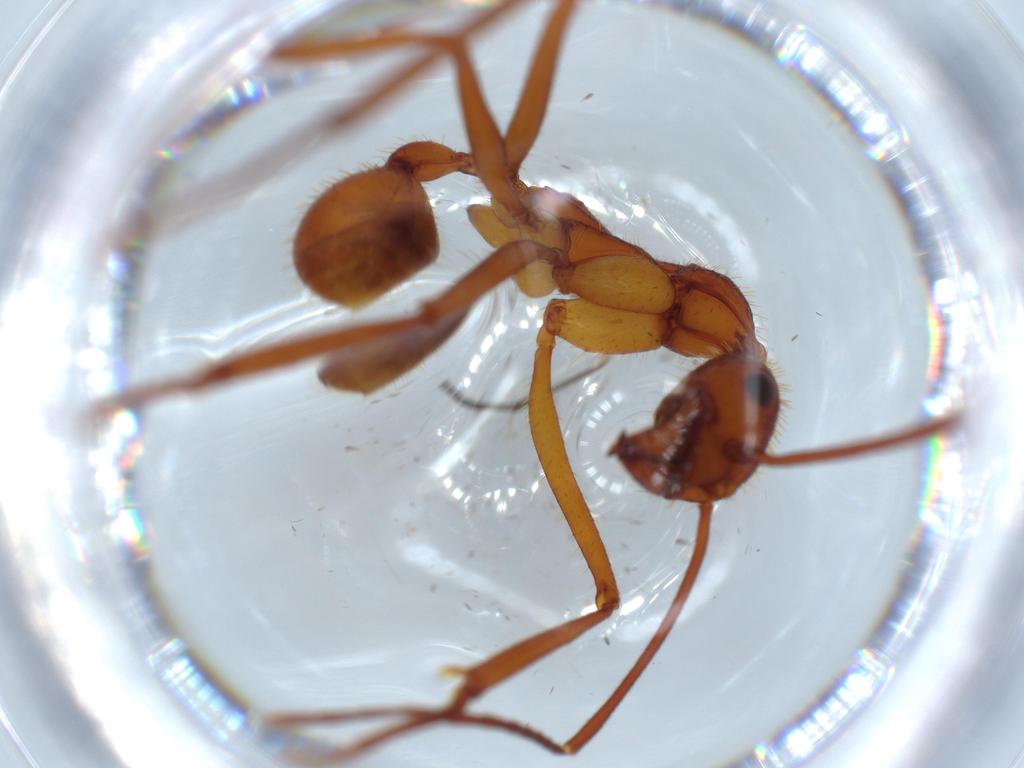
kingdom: Animalia
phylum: Arthropoda
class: Insecta
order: Hymenoptera
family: Formicidae
